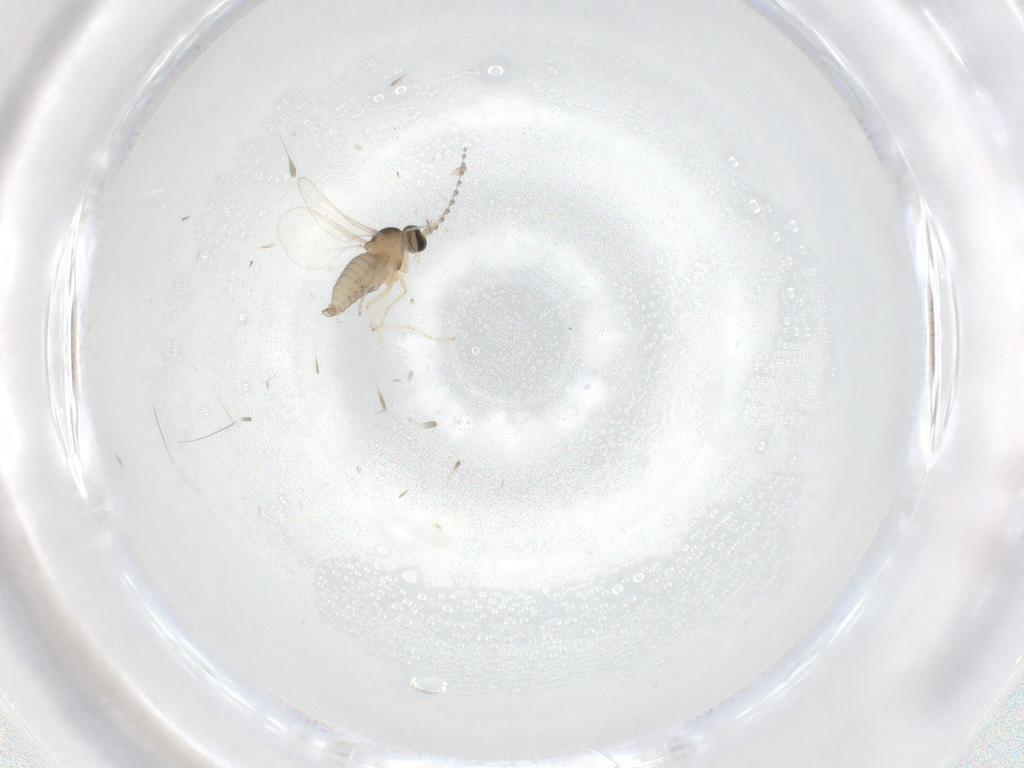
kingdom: Animalia
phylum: Arthropoda
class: Insecta
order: Diptera
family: Cecidomyiidae
